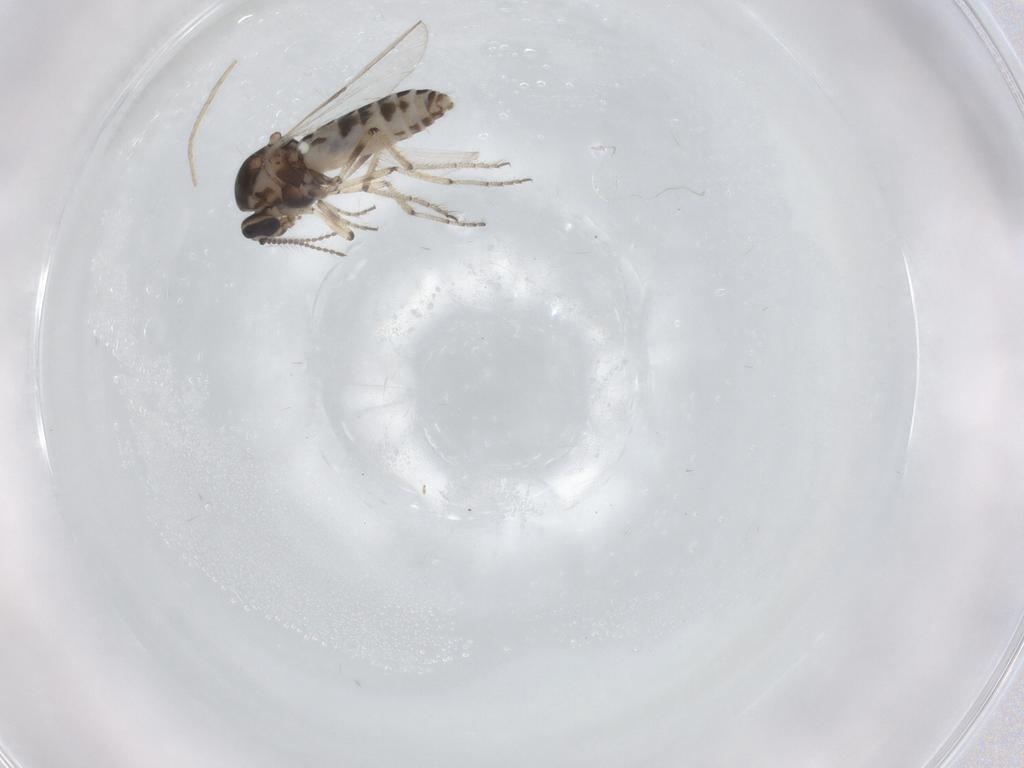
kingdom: Animalia
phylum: Arthropoda
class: Insecta
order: Diptera
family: Ceratopogonidae
